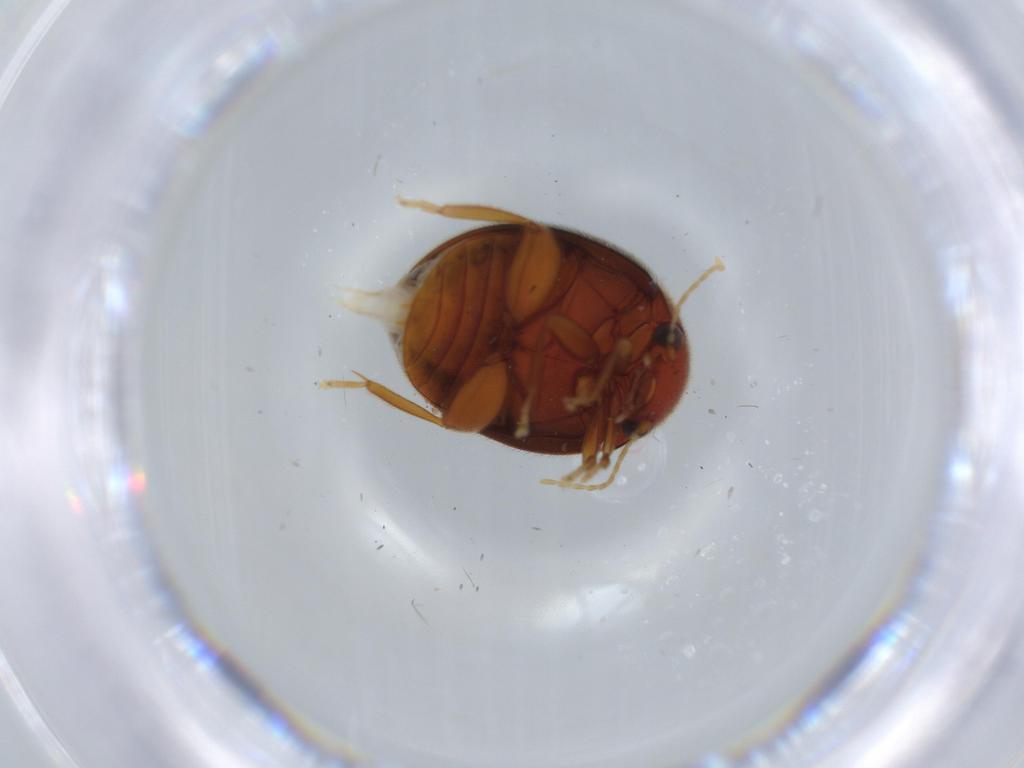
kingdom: Animalia
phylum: Arthropoda
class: Insecta
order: Coleoptera
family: Scirtidae
